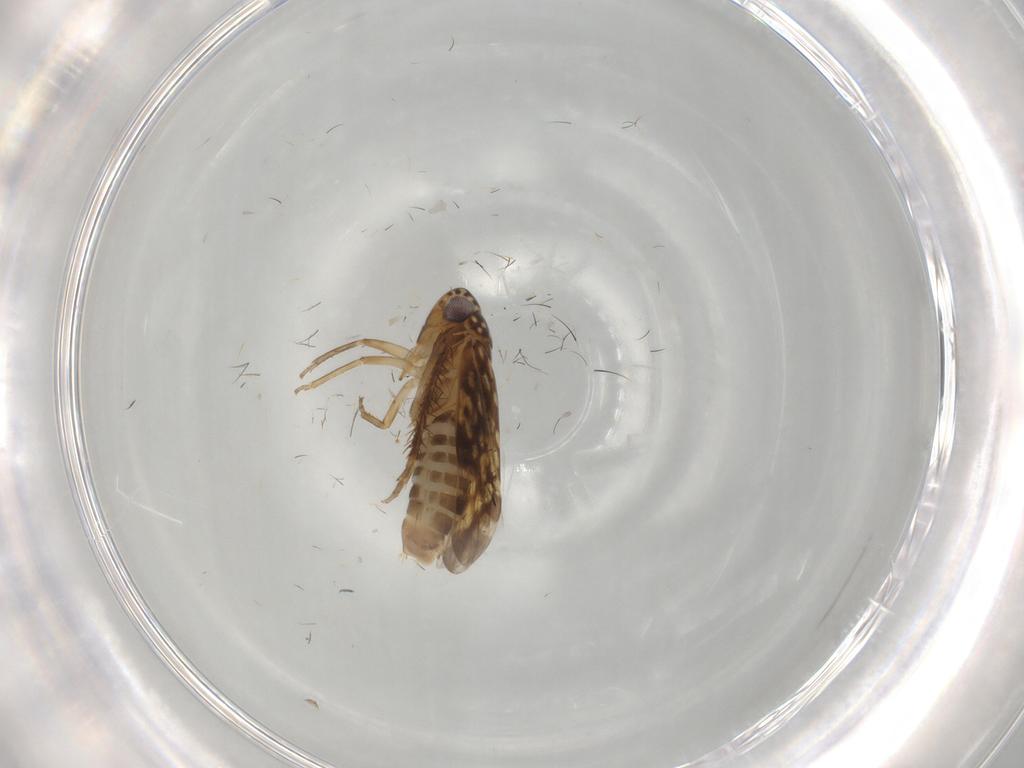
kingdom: Animalia
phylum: Arthropoda
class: Insecta
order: Hemiptera
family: Cicadellidae
